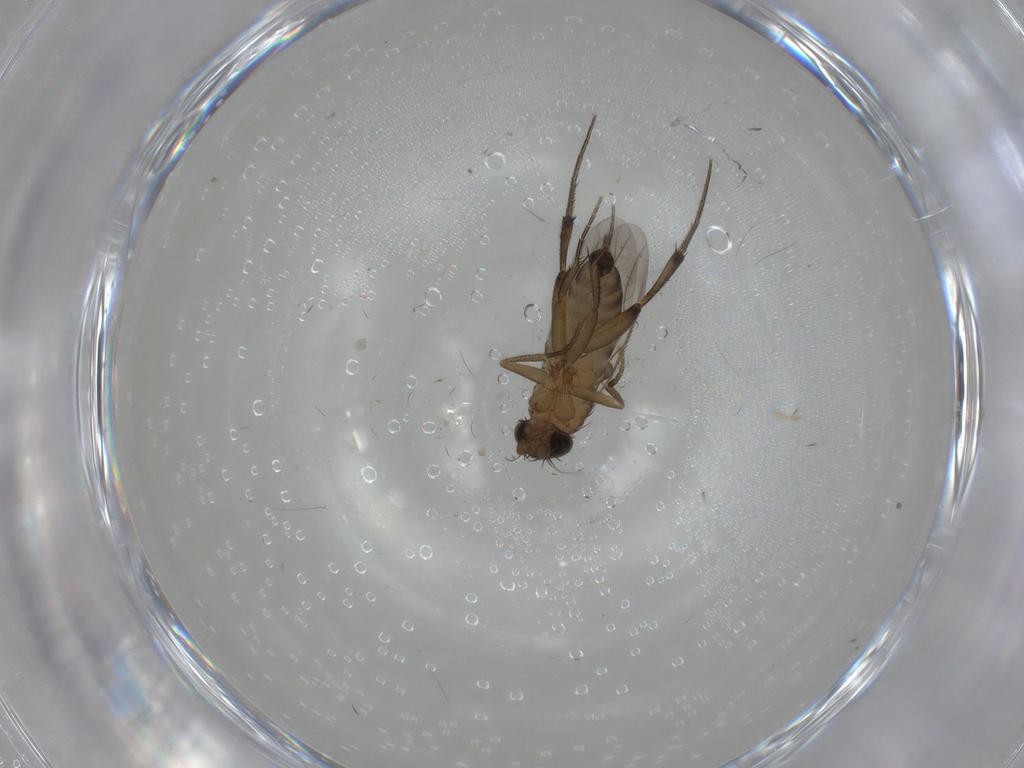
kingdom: Animalia
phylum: Arthropoda
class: Insecta
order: Diptera
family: Phoridae
